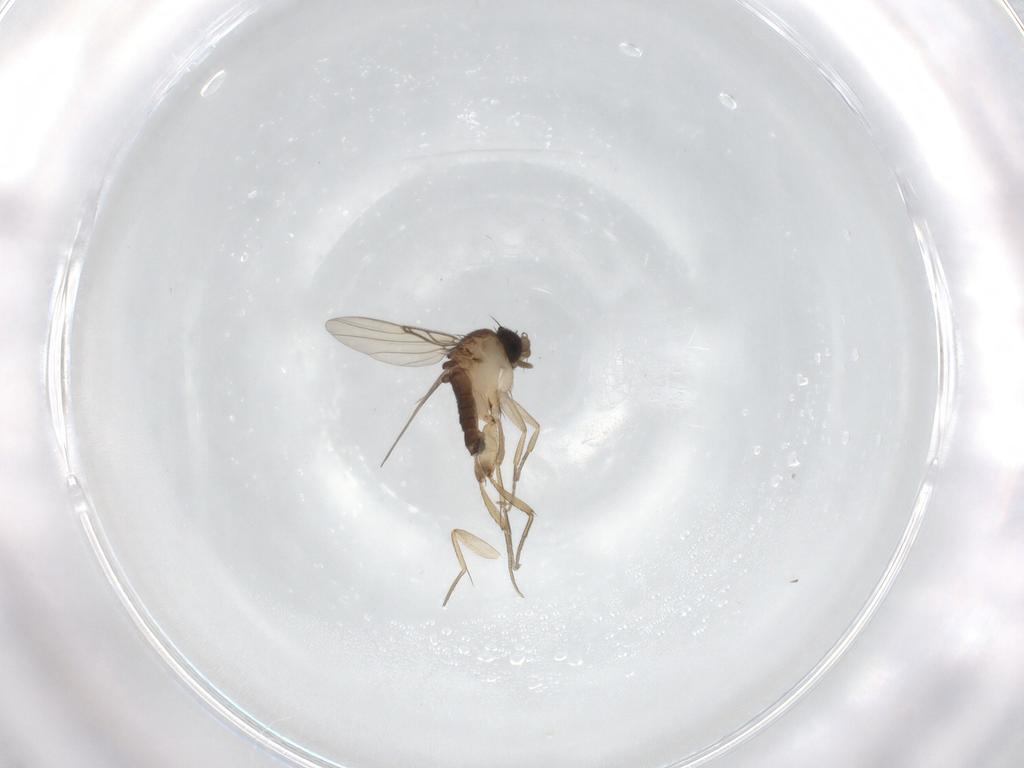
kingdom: Animalia
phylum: Arthropoda
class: Insecta
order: Diptera
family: Phoridae
